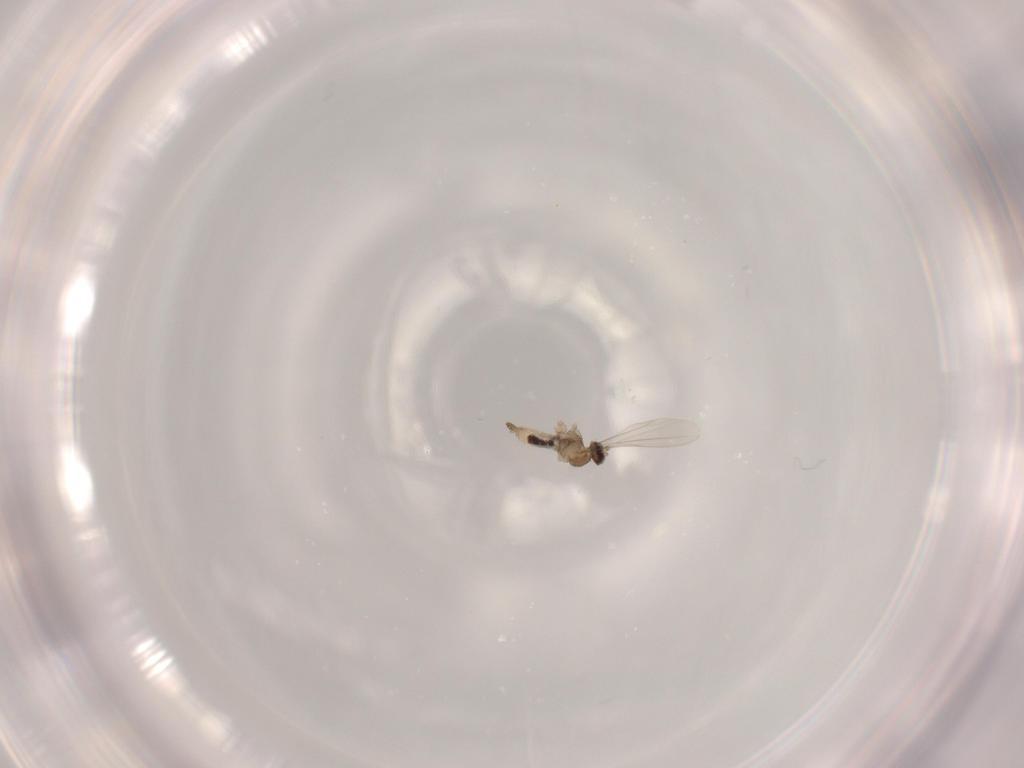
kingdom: Animalia
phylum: Arthropoda
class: Insecta
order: Diptera
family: Cecidomyiidae
